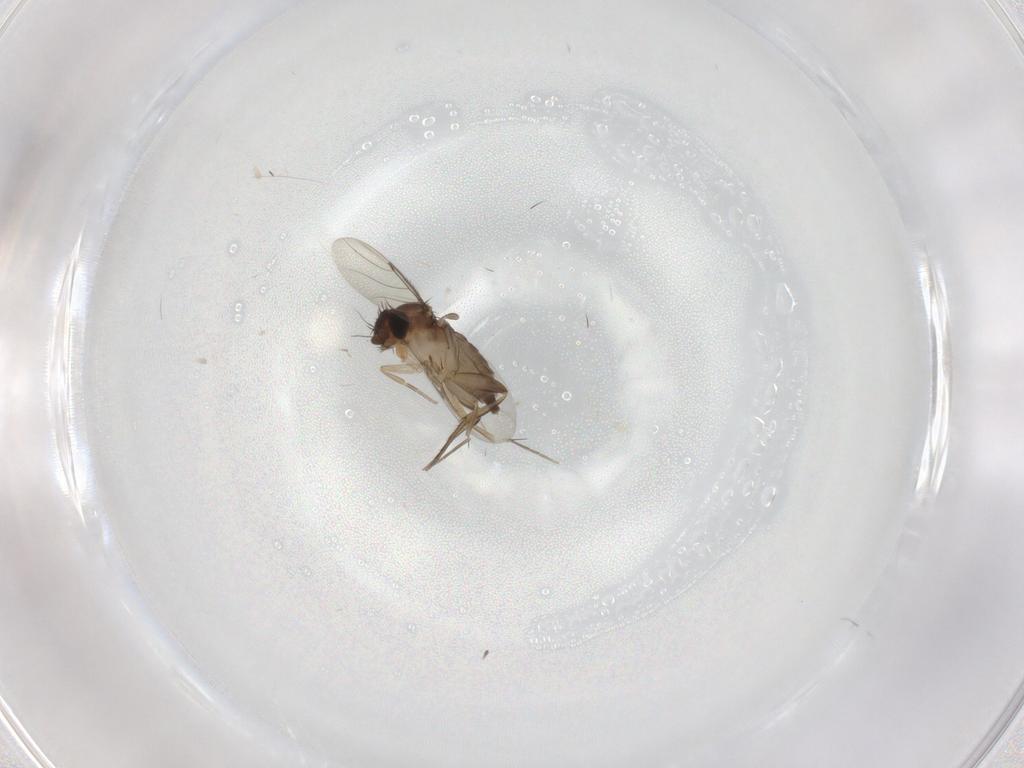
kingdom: Animalia
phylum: Arthropoda
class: Insecta
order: Diptera
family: Phoridae
